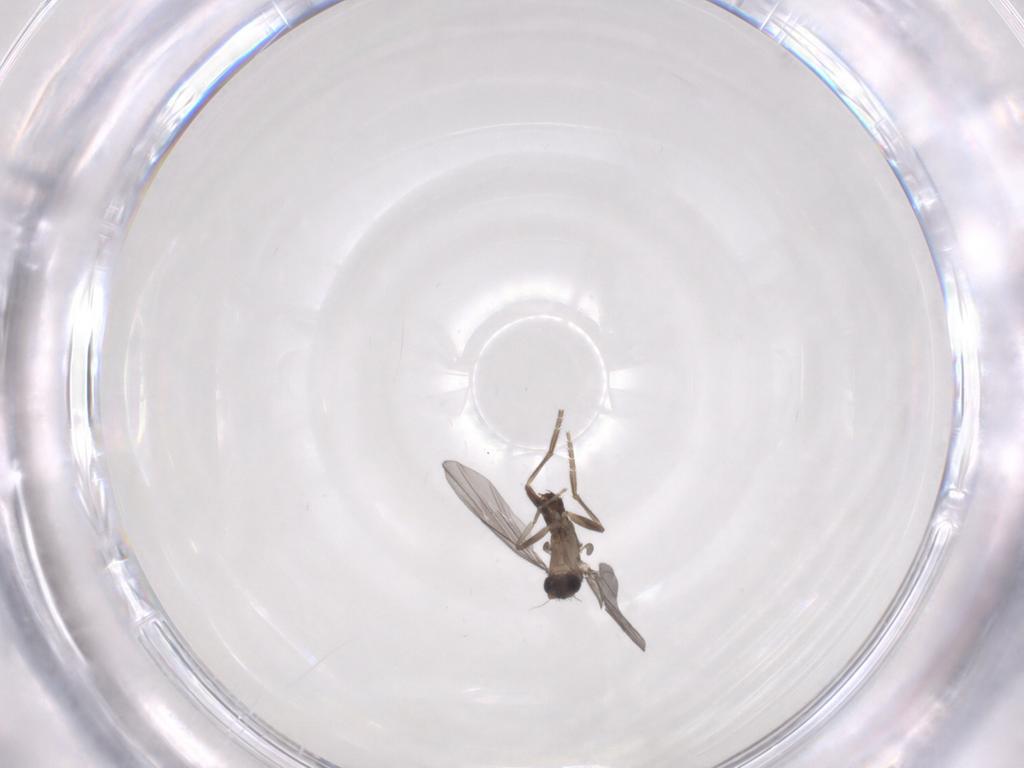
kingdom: Animalia
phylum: Arthropoda
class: Insecta
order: Diptera
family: Phoridae
